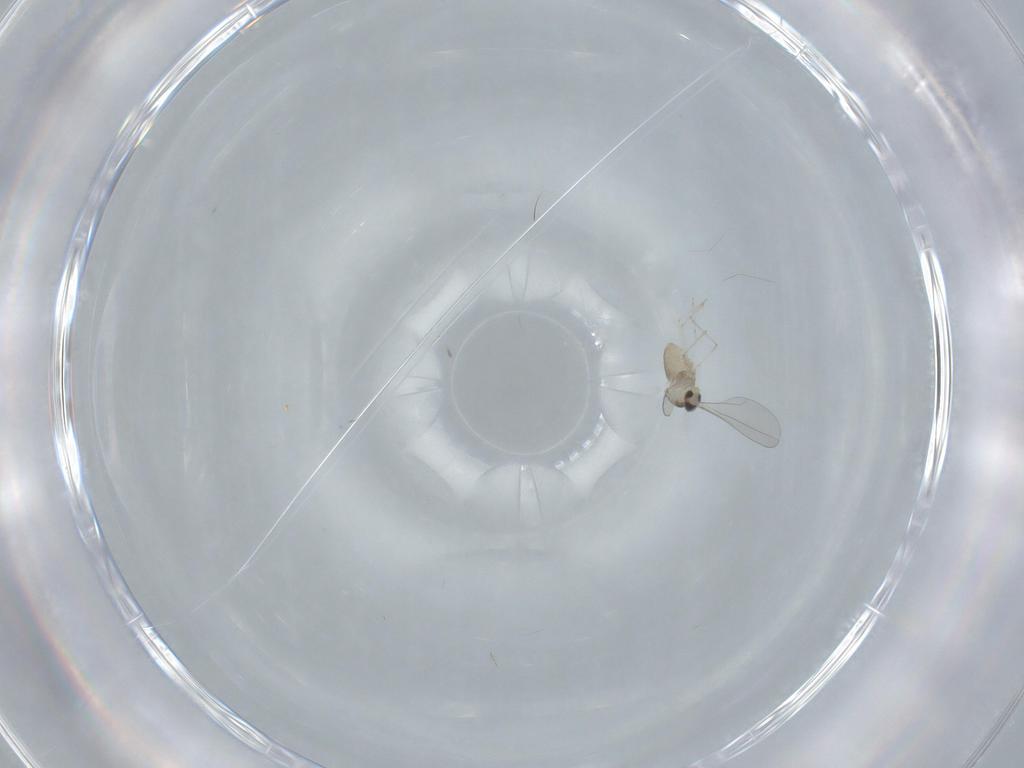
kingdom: Animalia
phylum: Arthropoda
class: Insecta
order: Diptera
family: Cecidomyiidae
